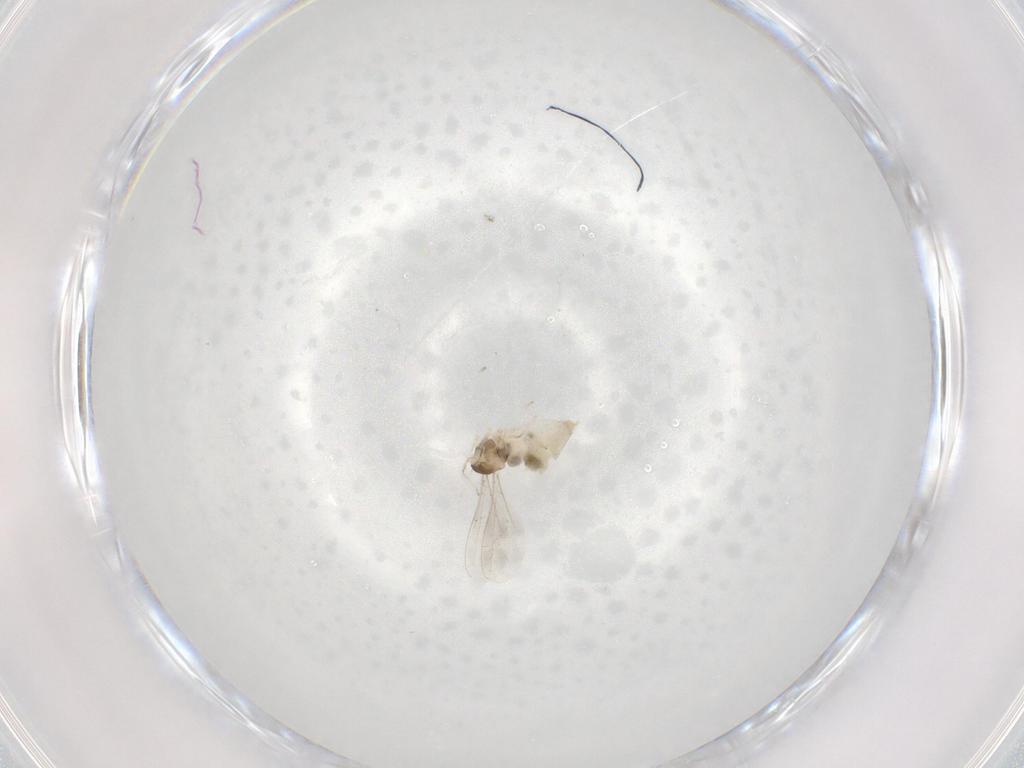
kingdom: Animalia
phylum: Arthropoda
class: Insecta
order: Diptera
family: Cecidomyiidae
